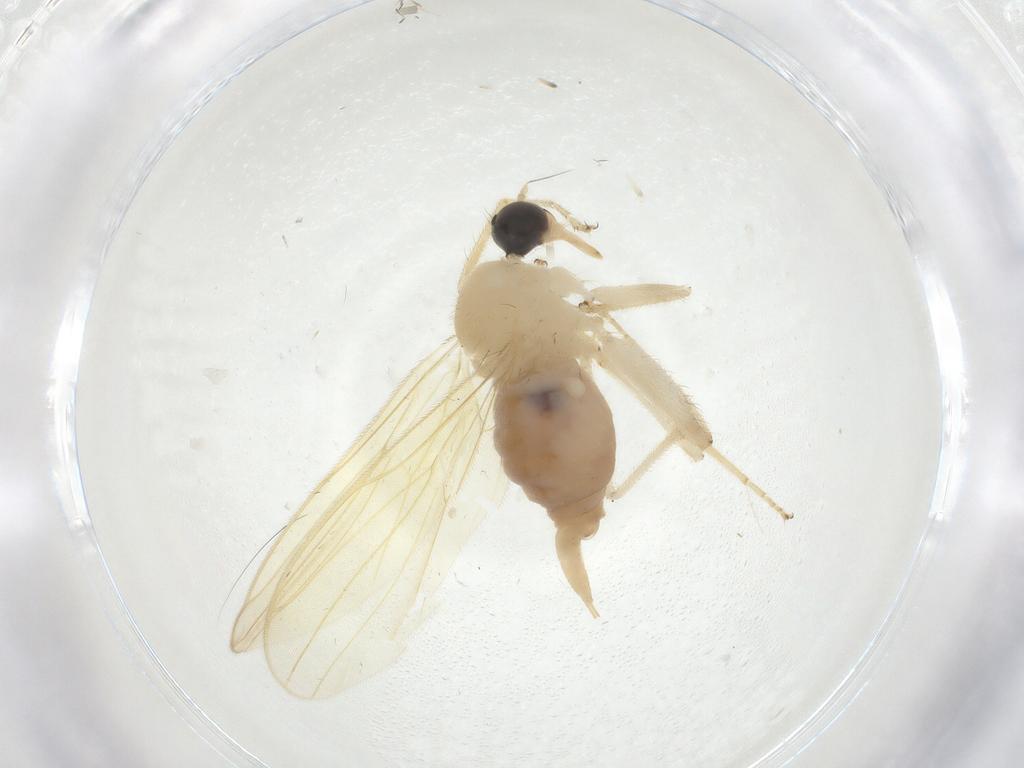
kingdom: Animalia
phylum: Arthropoda
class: Insecta
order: Diptera
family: Hybotidae
